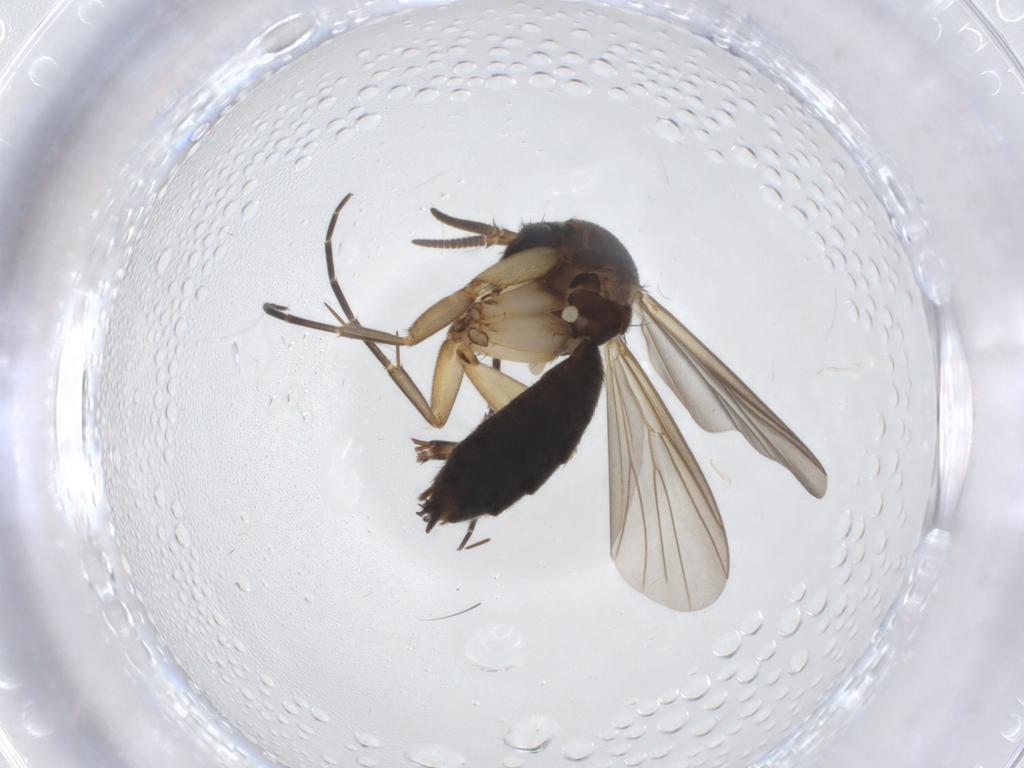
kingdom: Animalia
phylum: Arthropoda
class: Insecta
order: Diptera
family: Mycetophilidae
